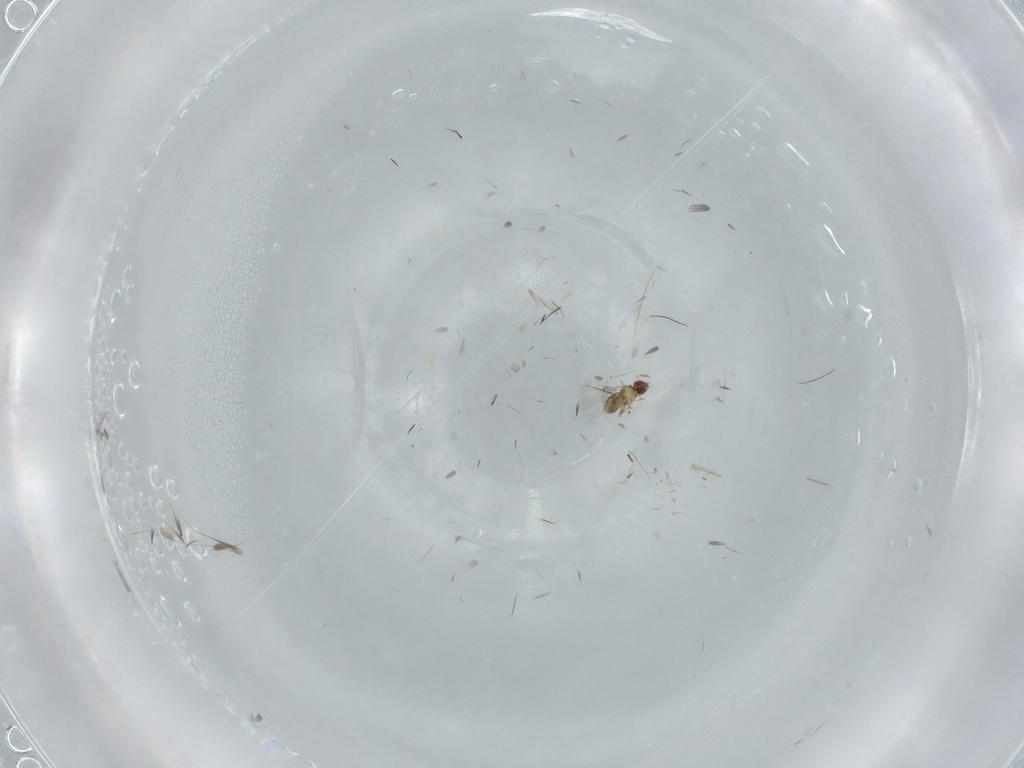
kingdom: Animalia
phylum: Arthropoda
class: Insecta
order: Hymenoptera
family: Trichogrammatidae
